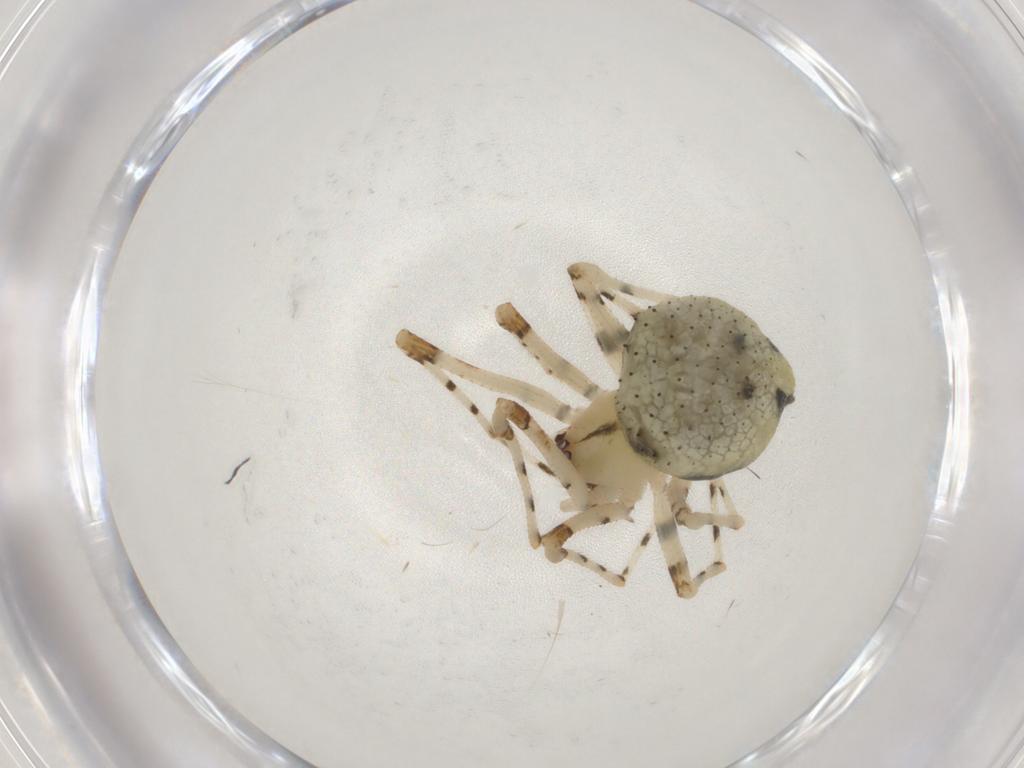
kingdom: Animalia
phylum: Arthropoda
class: Collembola
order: Symphypleona
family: Katiannidae
